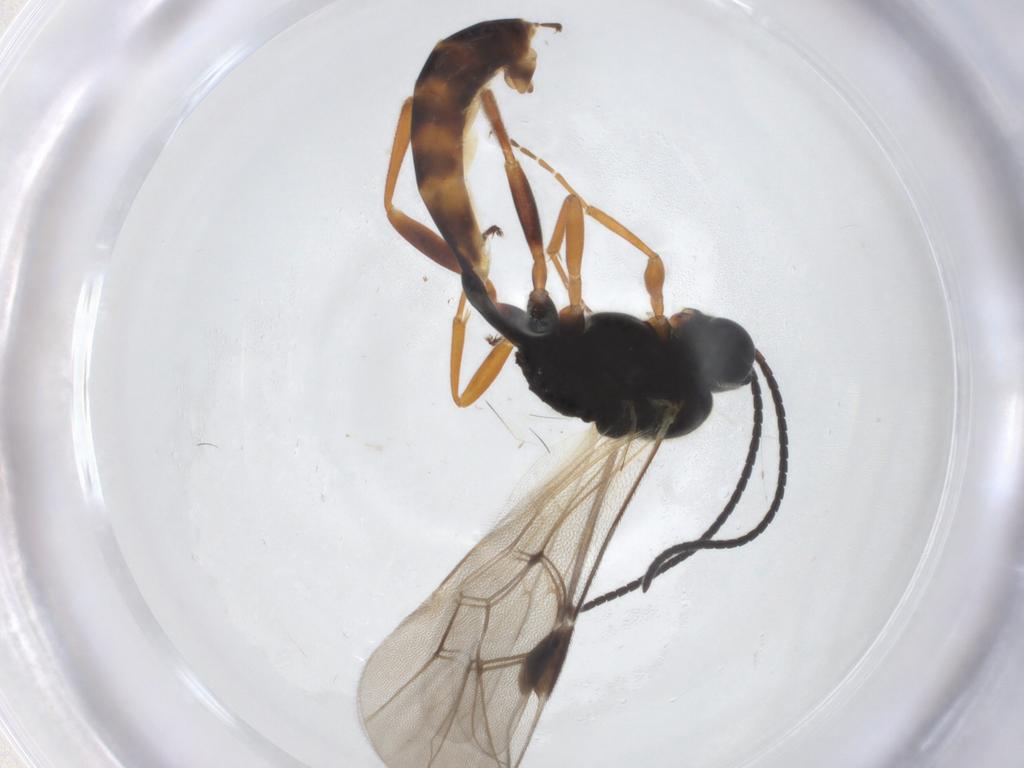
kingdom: Animalia
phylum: Arthropoda
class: Insecta
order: Hymenoptera
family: Ichneumonidae
